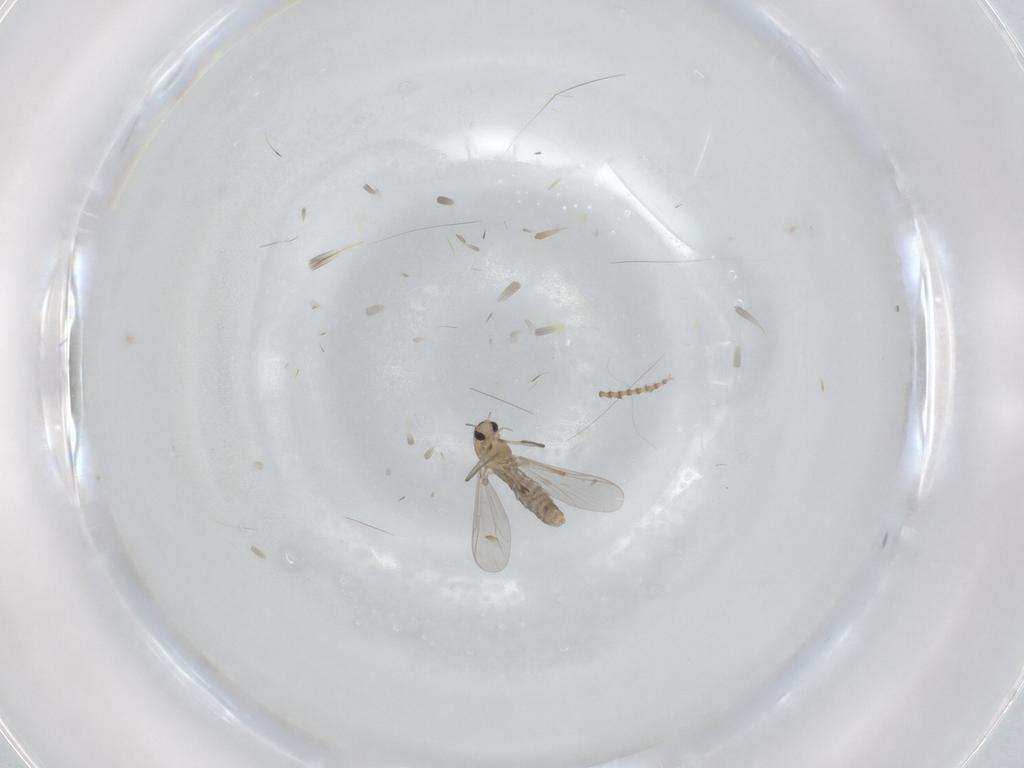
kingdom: Animalia
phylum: Arthropoda
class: Insecta
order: Diptera
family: Chironomidae
